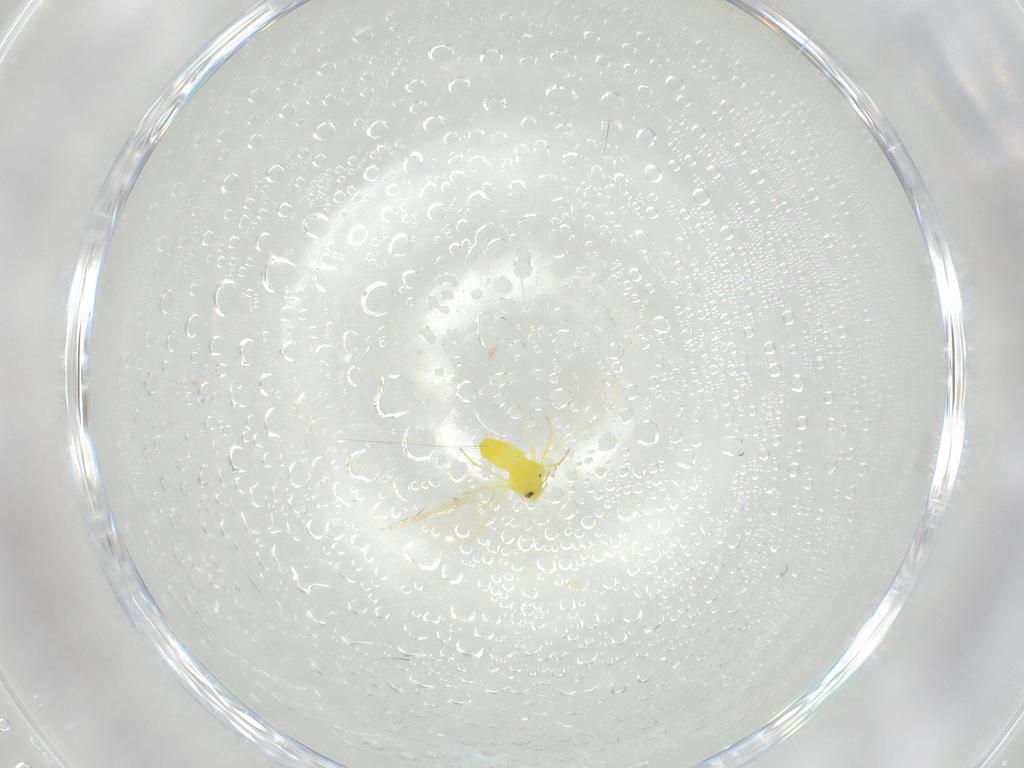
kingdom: Animalia
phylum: Arthropoda
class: Insecta
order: Hemiptera
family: Aleyrodidae
